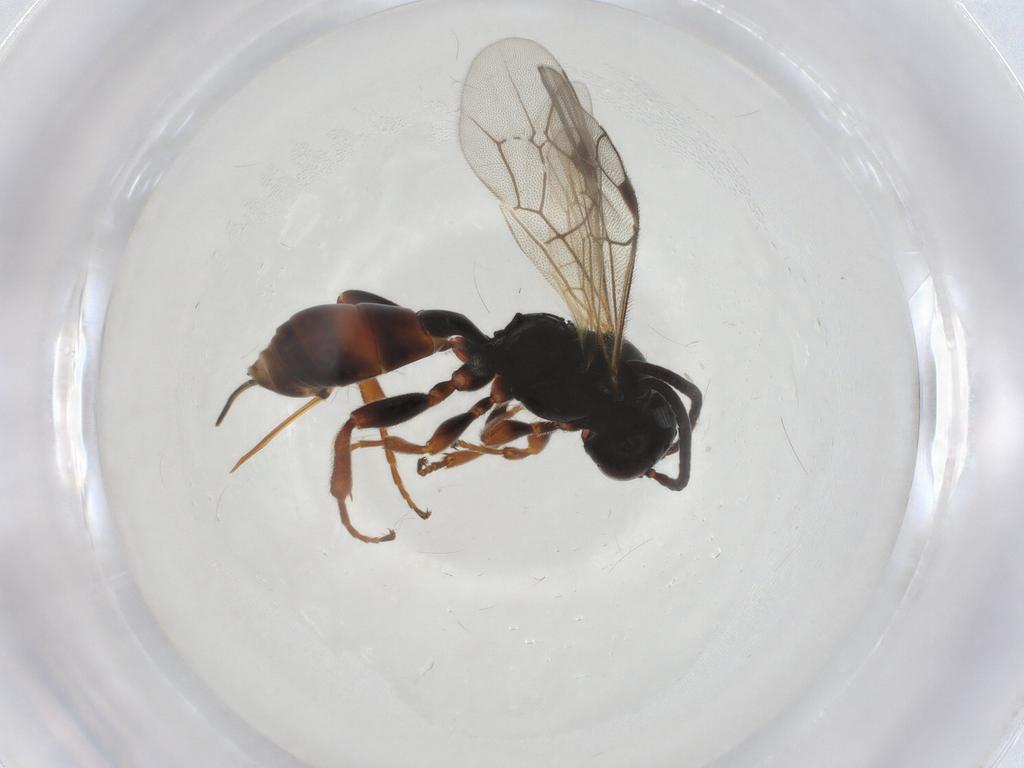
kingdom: Animalia
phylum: Arthropoda
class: Insecta
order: Hymenoptera
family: Ichneumonidae
